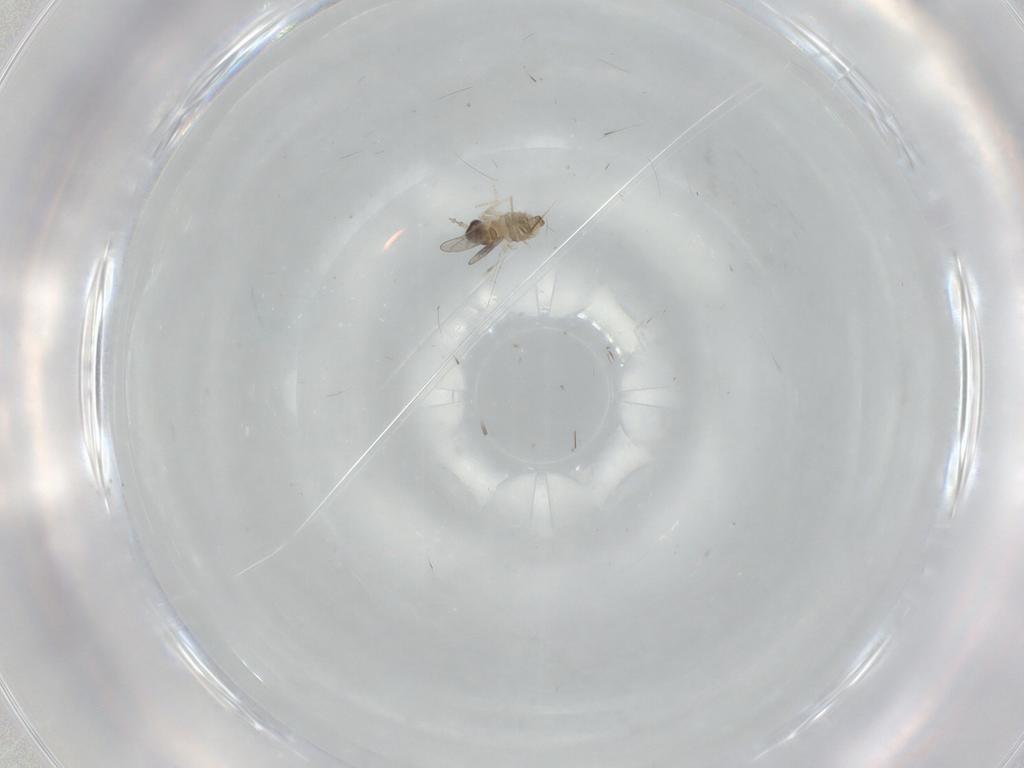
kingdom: Animalia
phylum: Arthropoda
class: Insecta
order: Diptera
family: Cecidomyiidae
